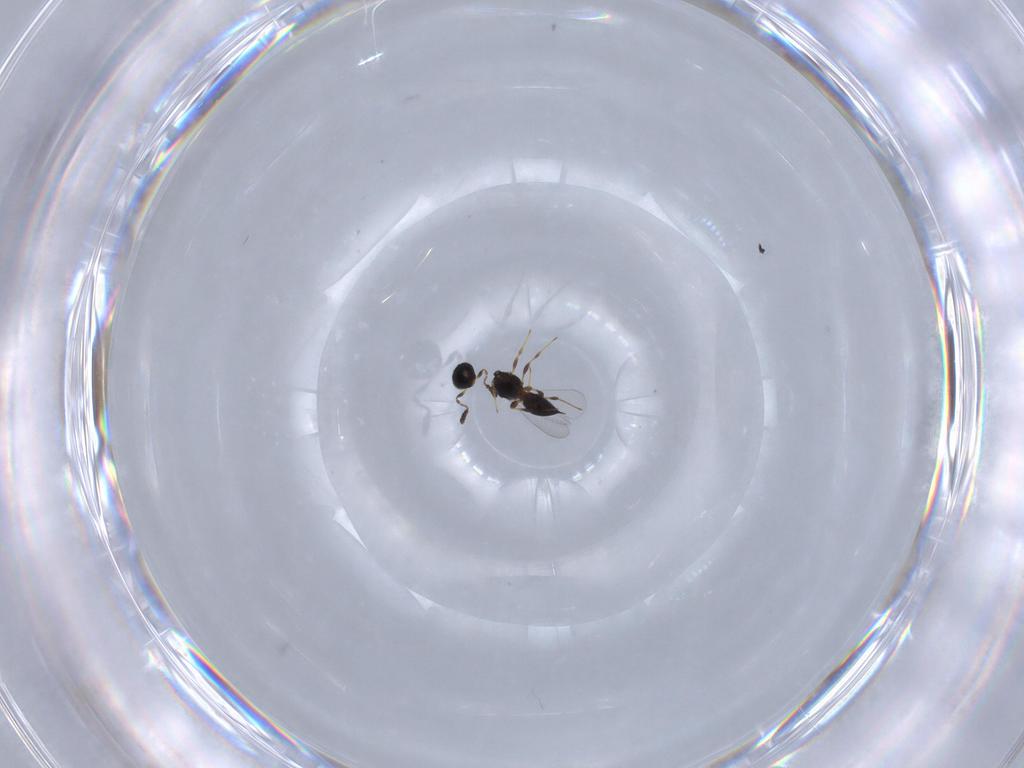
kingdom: Animalia
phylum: Arthropoda
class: Insecta
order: Hymenoptera
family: Platygastridae
